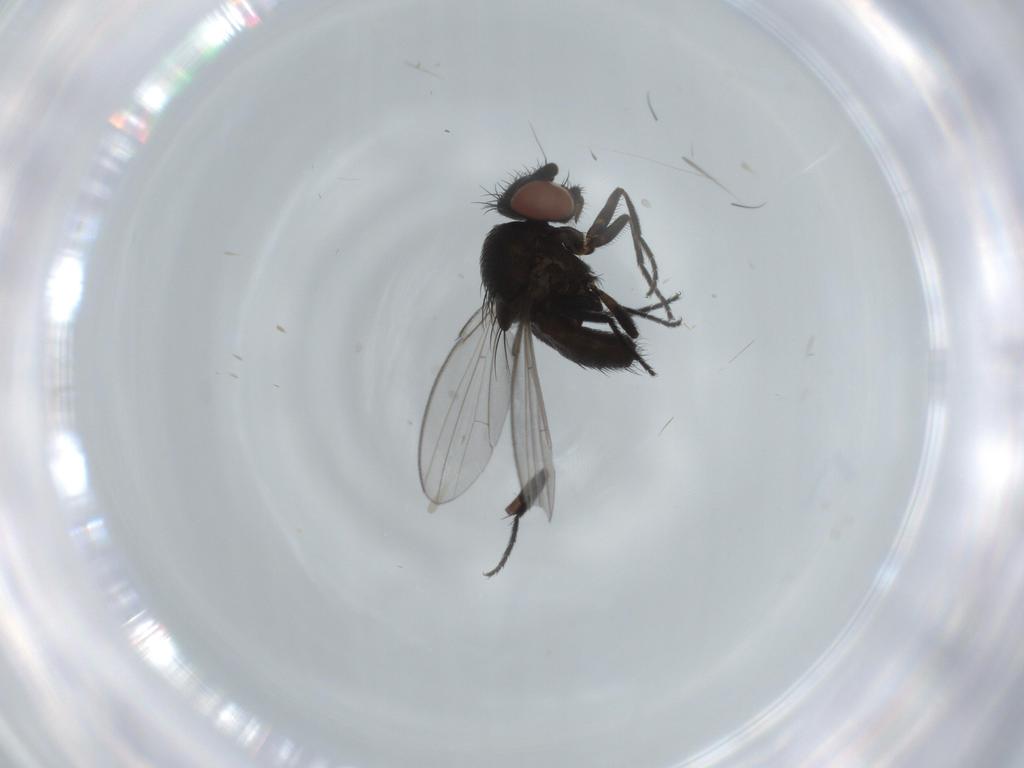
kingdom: Animalia
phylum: Arthropoda
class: Insecta
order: Diptera
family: Milichiidae
